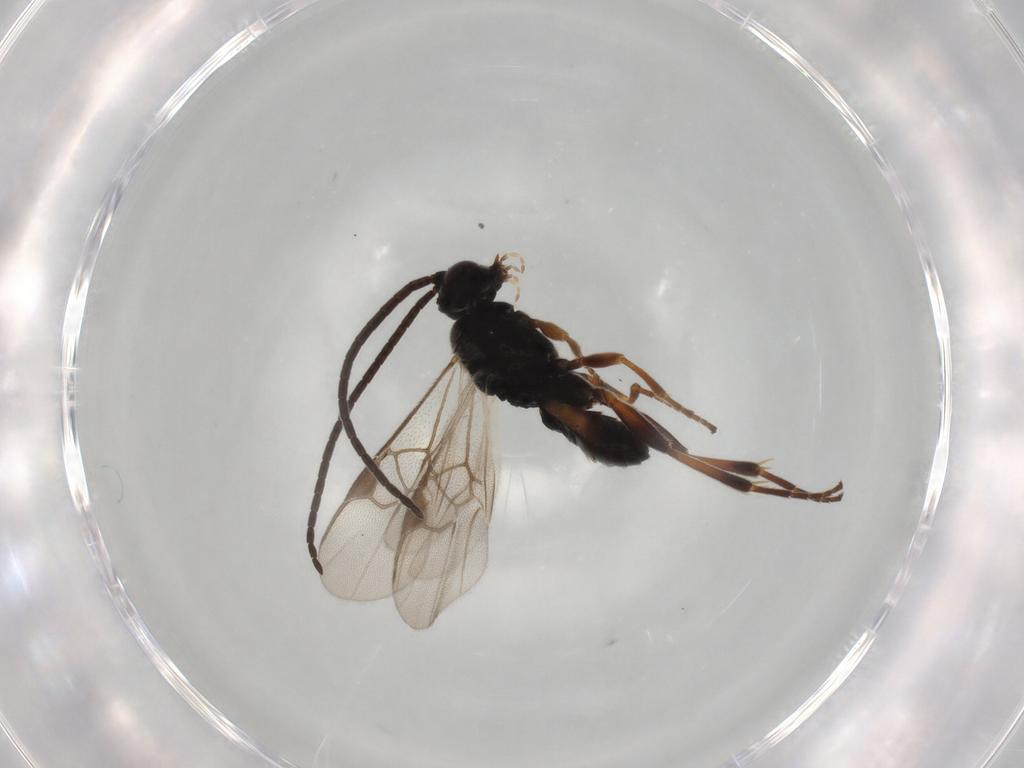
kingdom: Animalia
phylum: Arthropoda
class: Insecta
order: Hymenoptera
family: Braconidae
